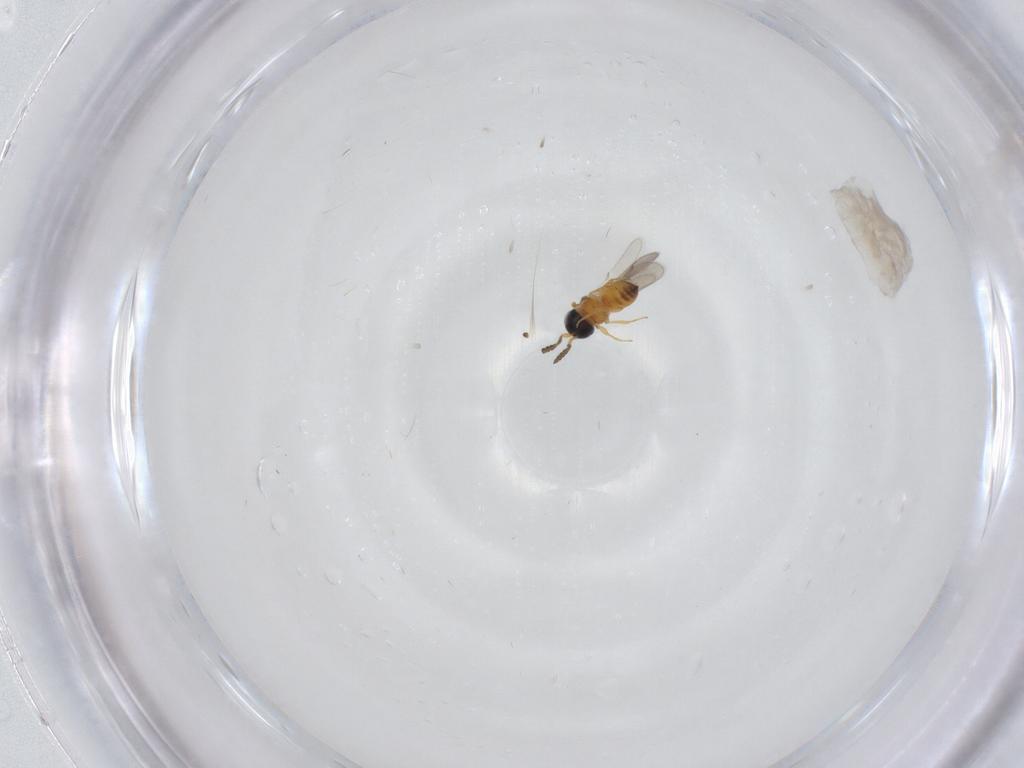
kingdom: Animalia
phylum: Arthropoda
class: Insecta
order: Hymenoptera
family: Scelionidae
